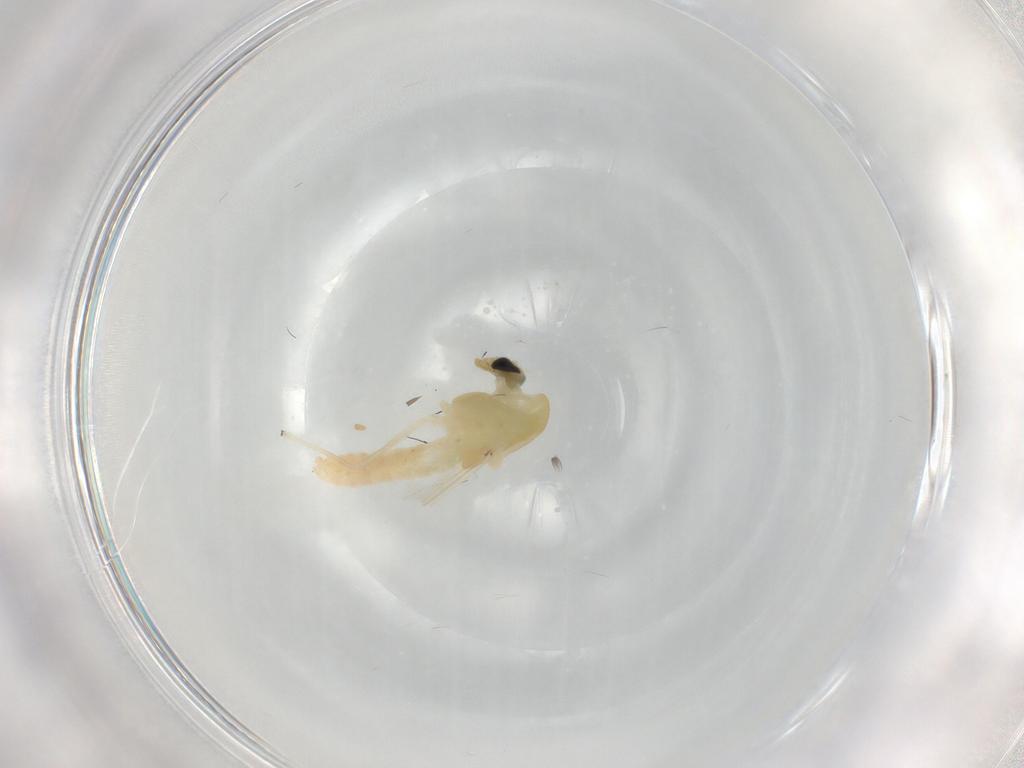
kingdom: Animalia
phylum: Arthropoda
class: Insecta
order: Diptera
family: Chironomidae
